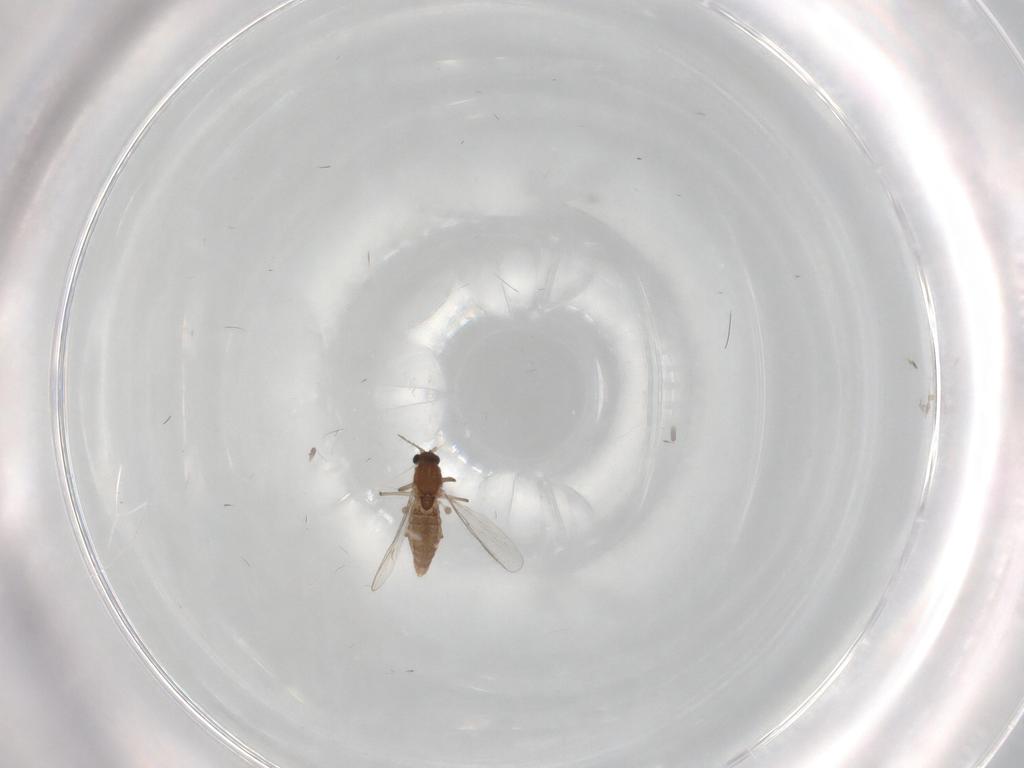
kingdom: Animalia
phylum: Arthropoda
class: Insecta
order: Diptera
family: Chironomidae
